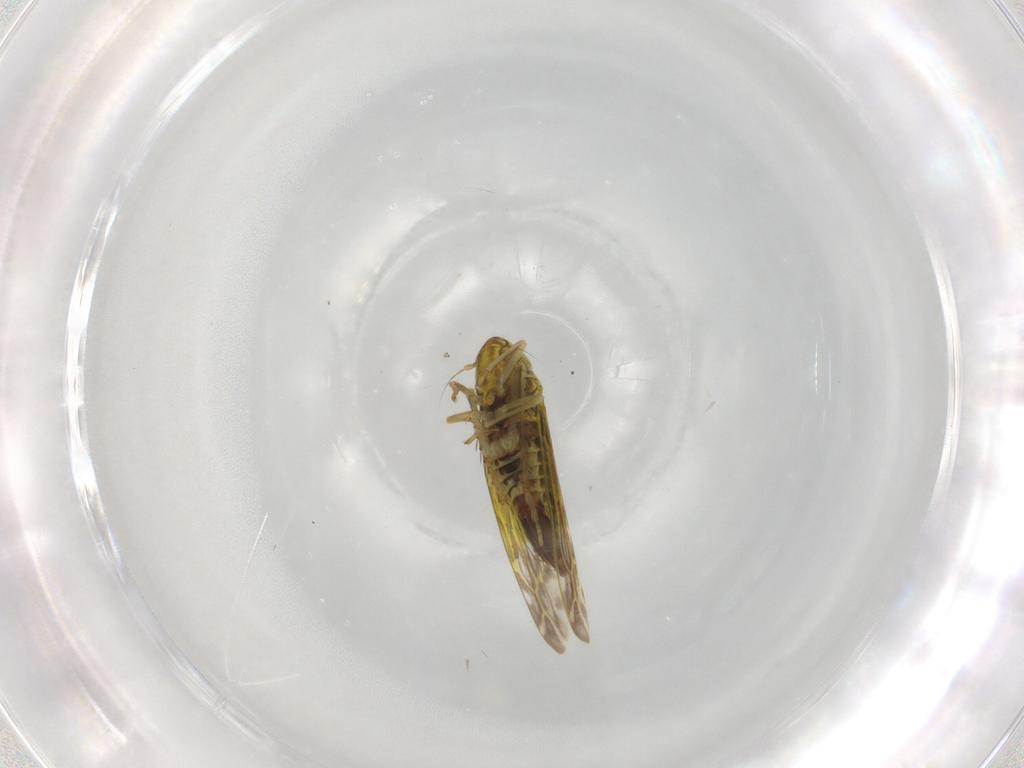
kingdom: Animalia
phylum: Arthropoda
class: Insecta
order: Hemiptera
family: Cicadellidae
